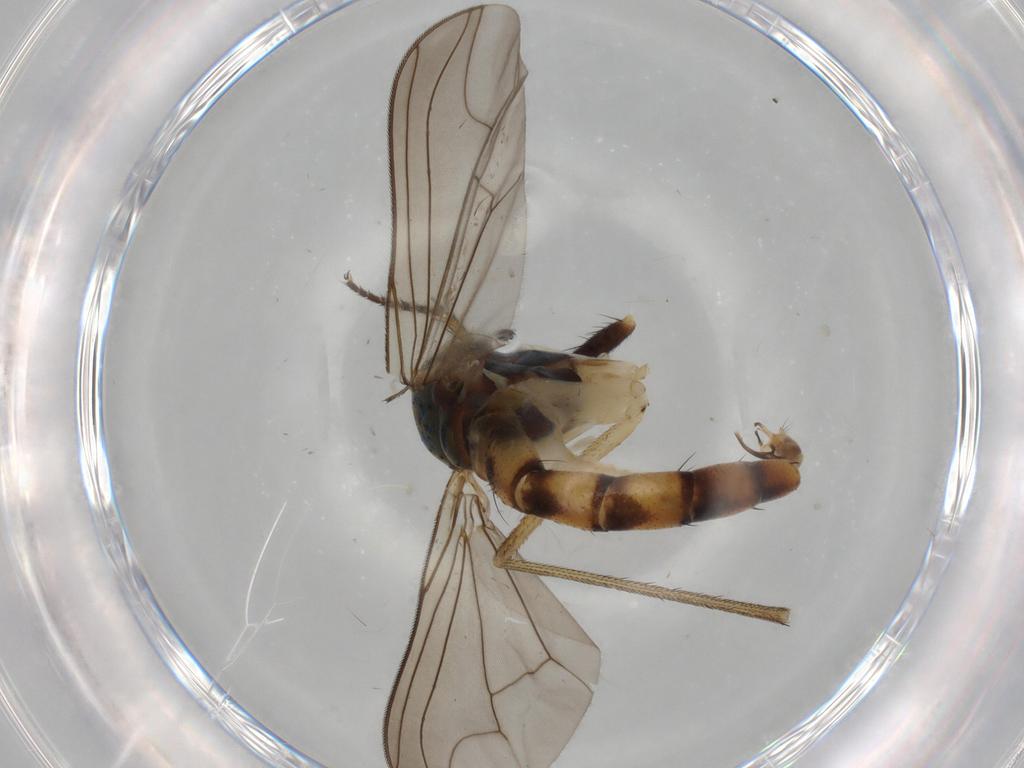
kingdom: Animalia
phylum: Arthropoda
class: Insecta
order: Diptera
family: Dolichopodidae
